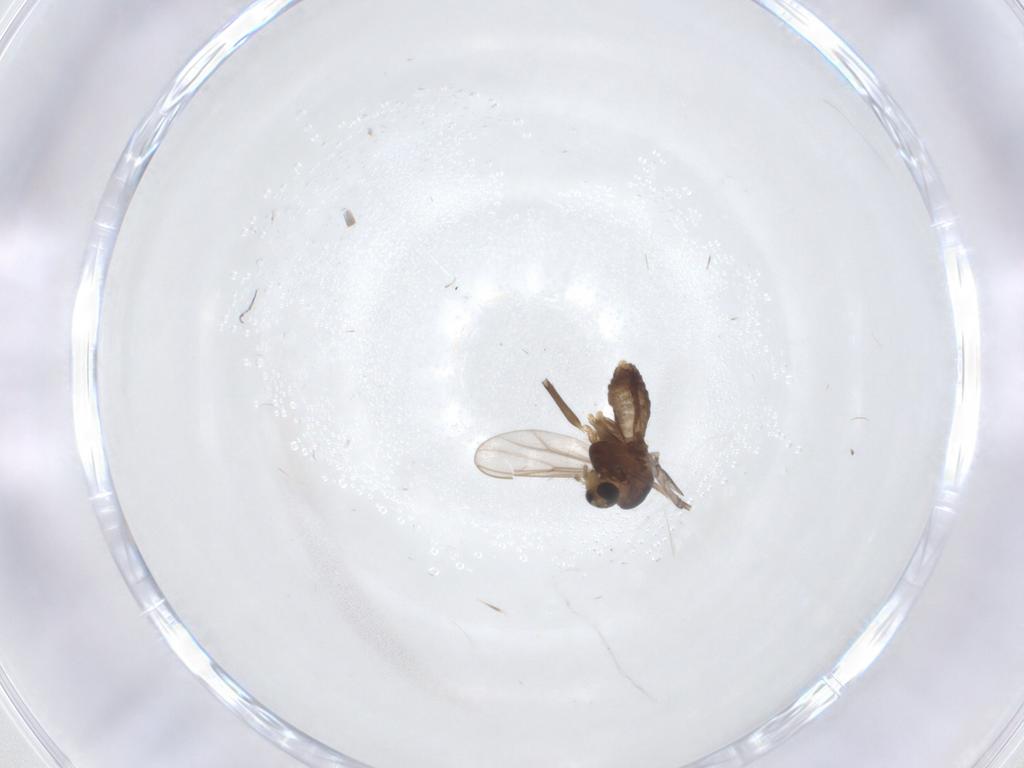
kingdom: Animalia
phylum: Arthropoda
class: Insecta
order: Diptera
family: Chironomidae
